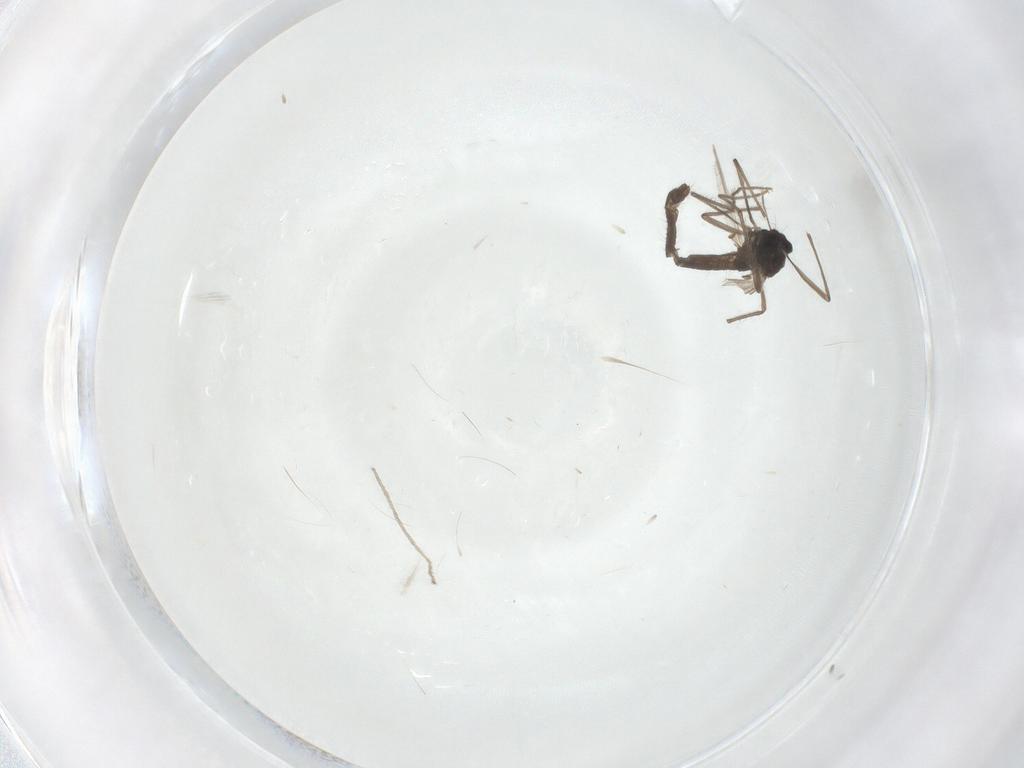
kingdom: Animalia
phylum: Arthropoda
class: Insecta
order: Diptera
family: Chironomidae
